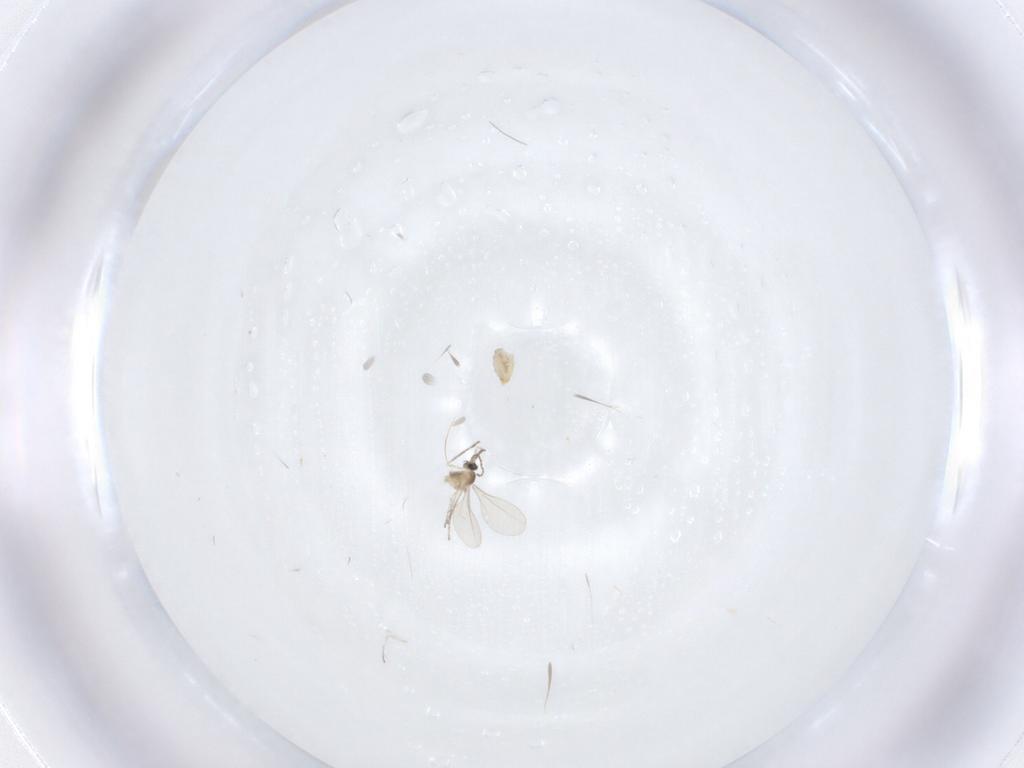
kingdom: Animalia
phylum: Arthropoda
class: Insecta
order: Diptera
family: Cecidomyiidae
